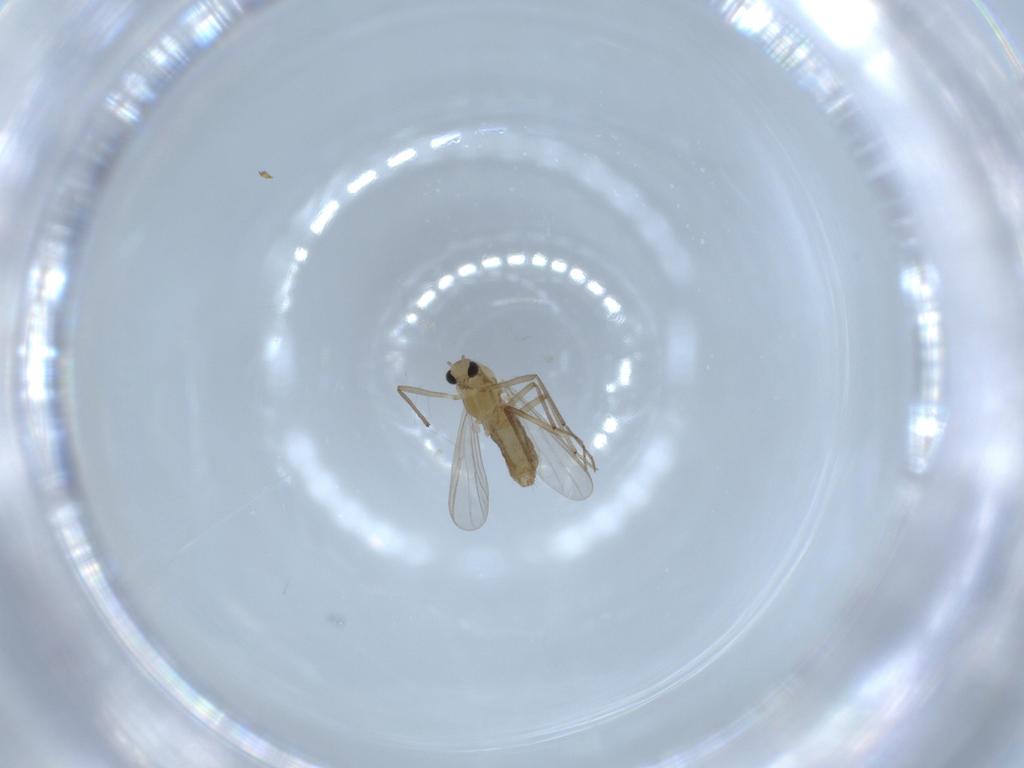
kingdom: Animalia
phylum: Arthropoda
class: Insecta
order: Diptera
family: Chironomidae
